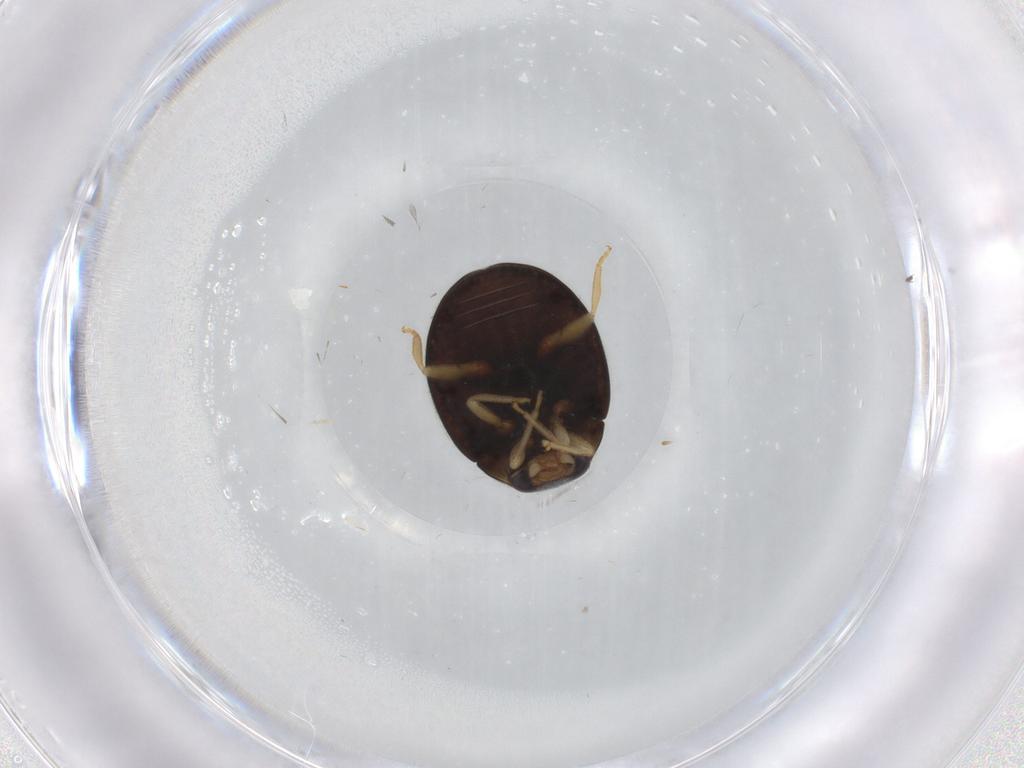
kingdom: Animalia
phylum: Arthropoda
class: Insecta
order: Coleoptera
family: Coccinellidae
